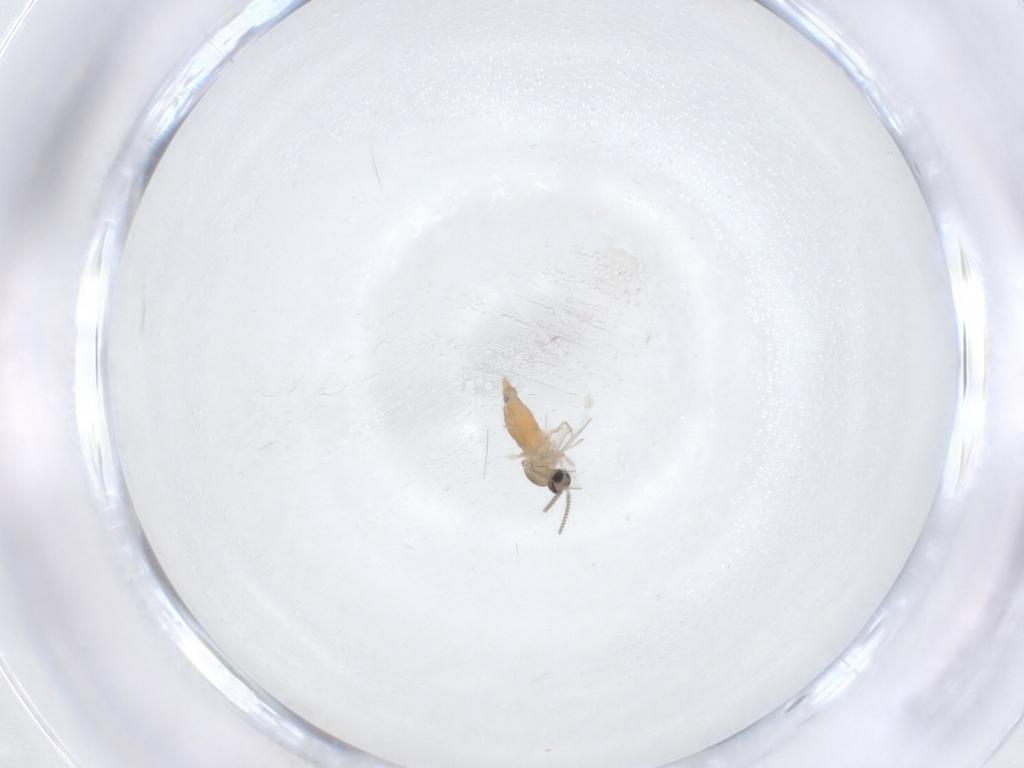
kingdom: Animalia
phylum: Arthropoda
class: Insecta
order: Diptera
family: Cecidomyiidae
